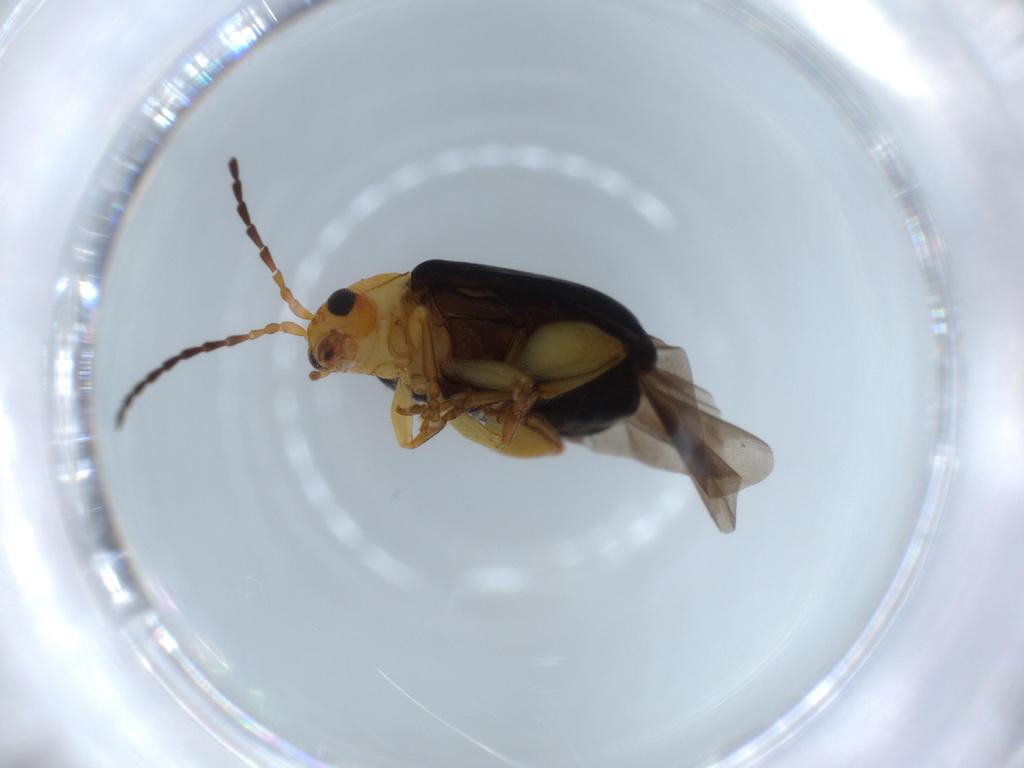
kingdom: Animalia
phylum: Arthropoda
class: Insecta
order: Coleoptera
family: Chrysomelidae
